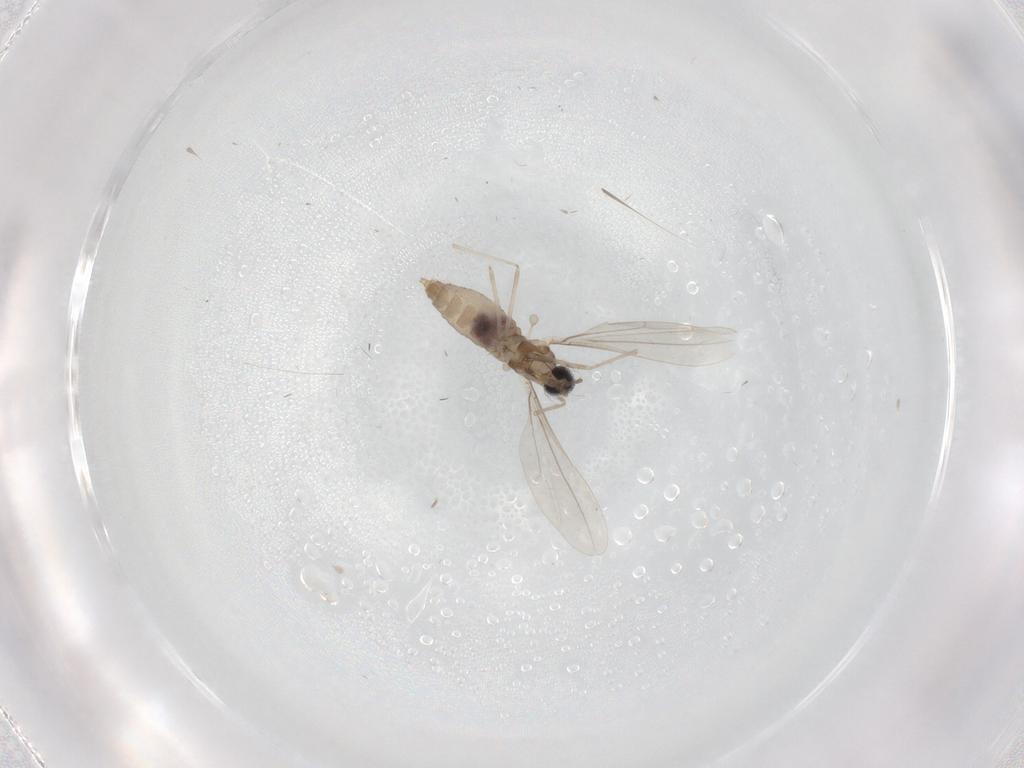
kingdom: Animalia
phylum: Arthropoda
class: Insecta
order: Diptera
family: Cecidomyiidae
